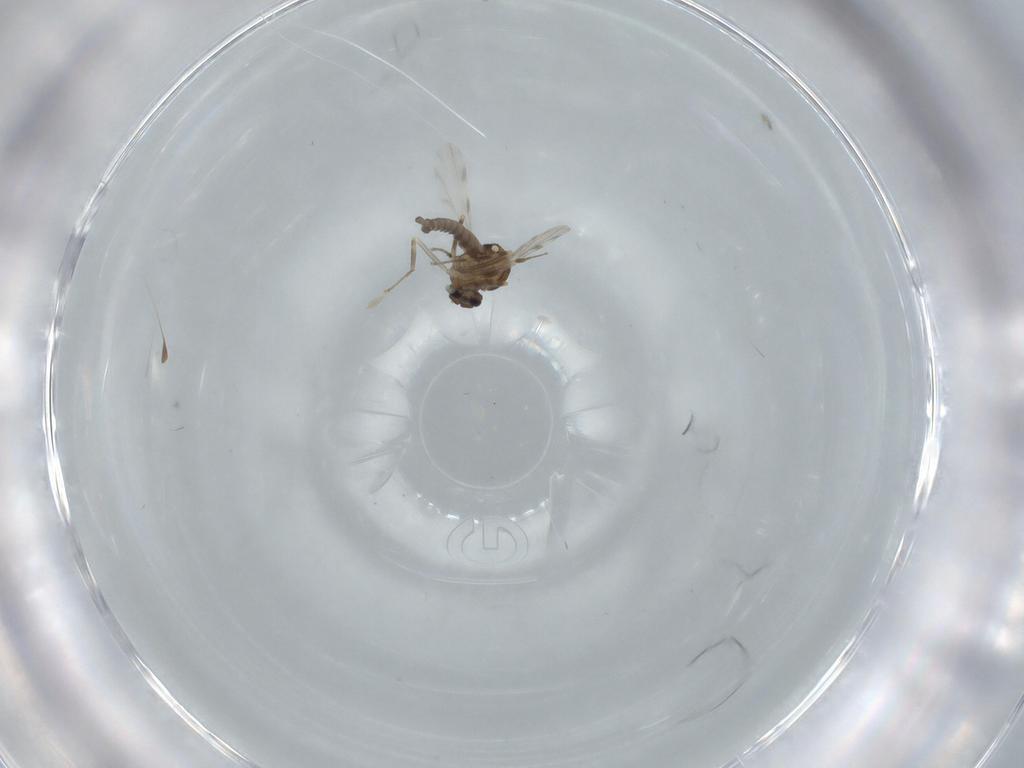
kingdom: Animalia
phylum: Arthropoda
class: Insecta
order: Diptera
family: Ceratopogonidae
